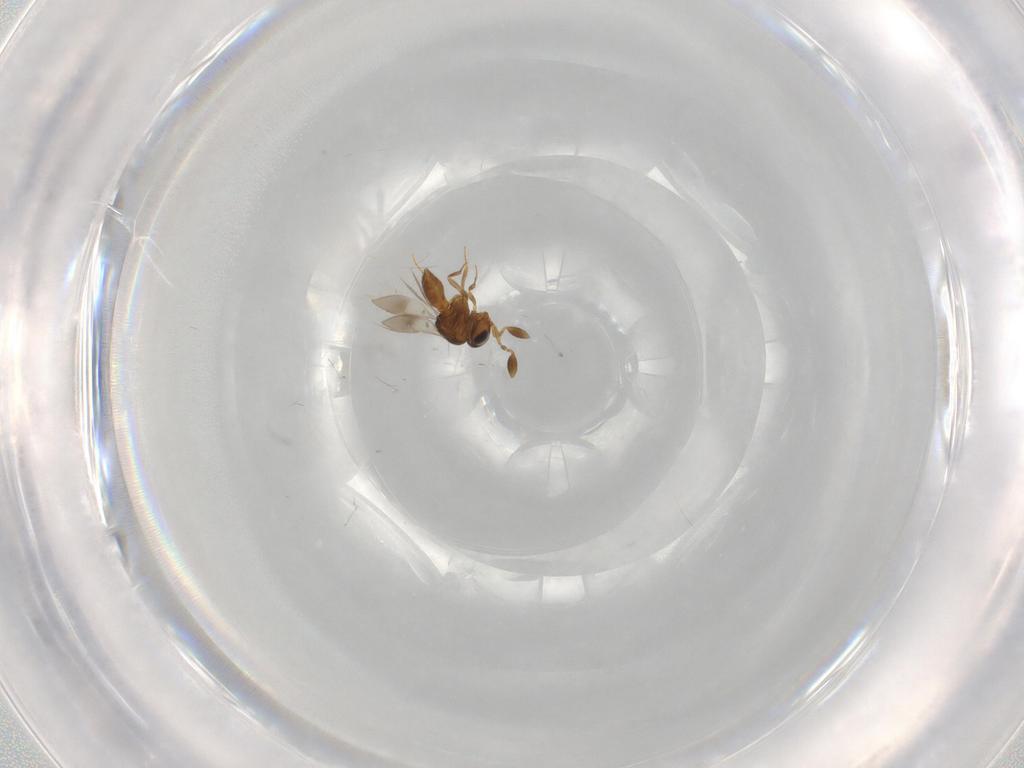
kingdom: Animalia
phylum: Arthropoda
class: Insecta
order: Hymenoptera
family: Scelionidae
